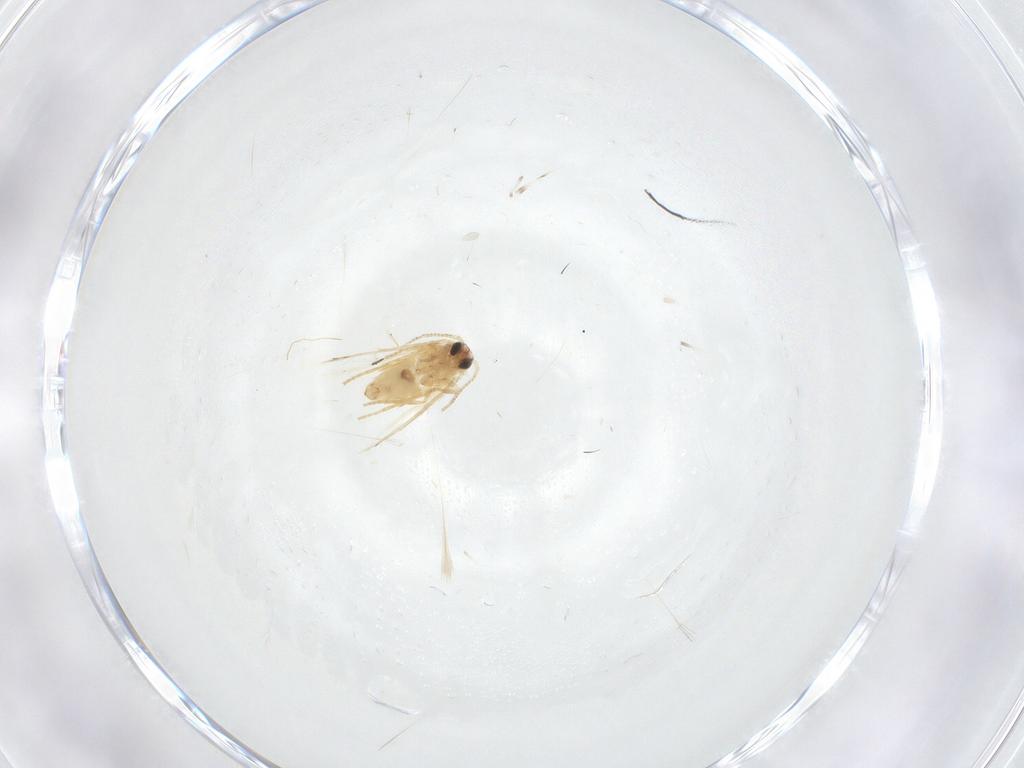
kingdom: Animalia
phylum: Arthropoda
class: Insecta
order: Lepidoptera
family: Crambidae
